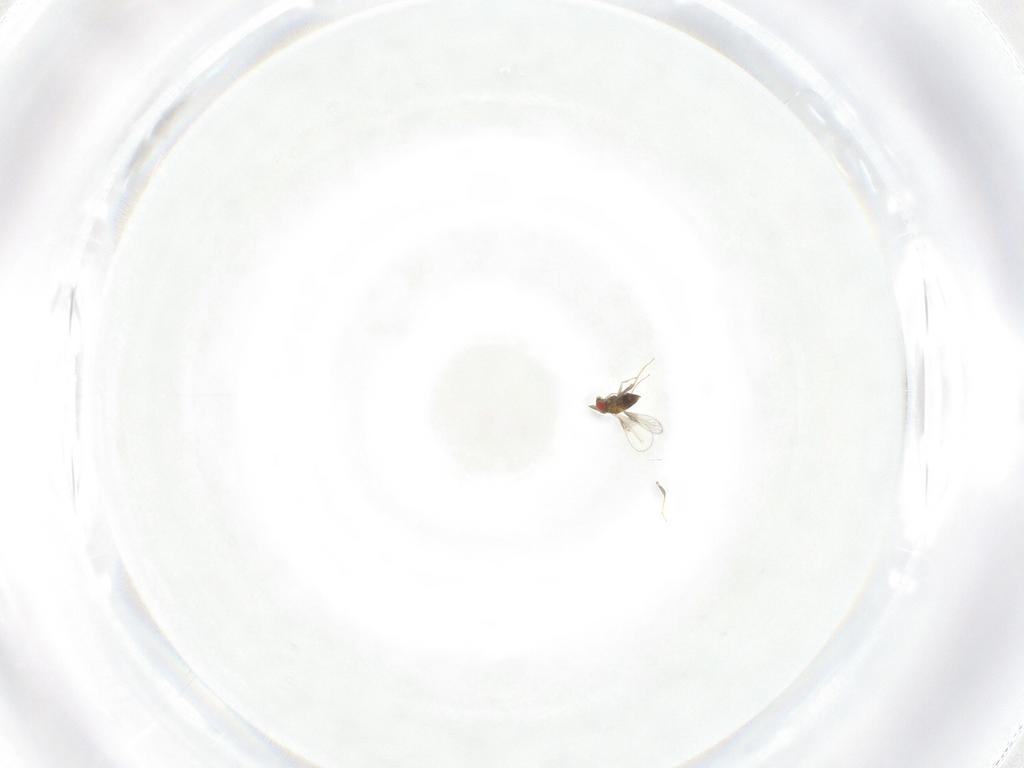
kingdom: Animalia
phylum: Arthropoda
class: Insecta
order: Hymenoptera
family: Trichogrammatidae
